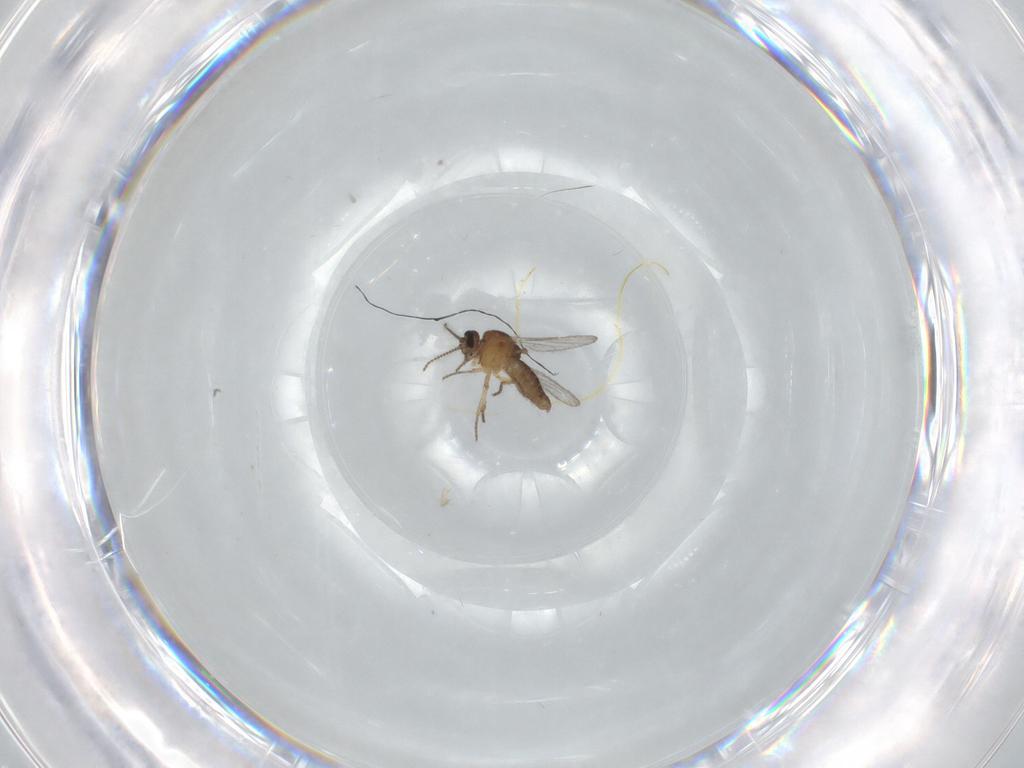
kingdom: Animalia
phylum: Arthropoda
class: Insecta
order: Diptera
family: Ceratopogonidae
